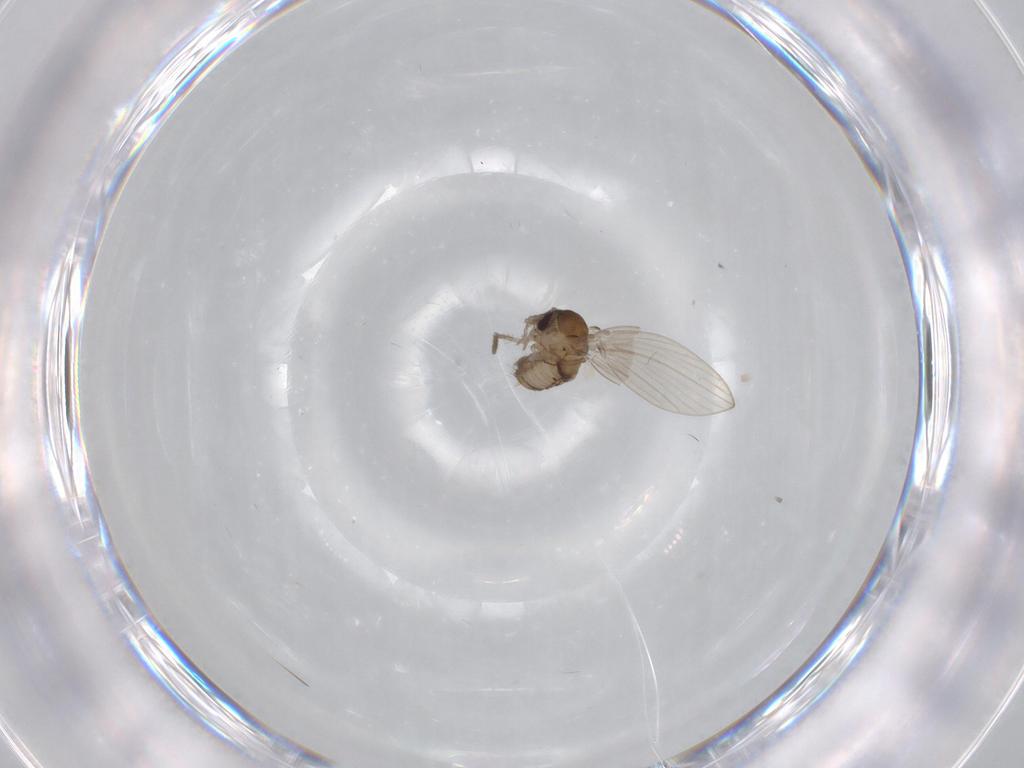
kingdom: Animalia
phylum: Arthropoda
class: Insecta
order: Diptera
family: Psychodidae
